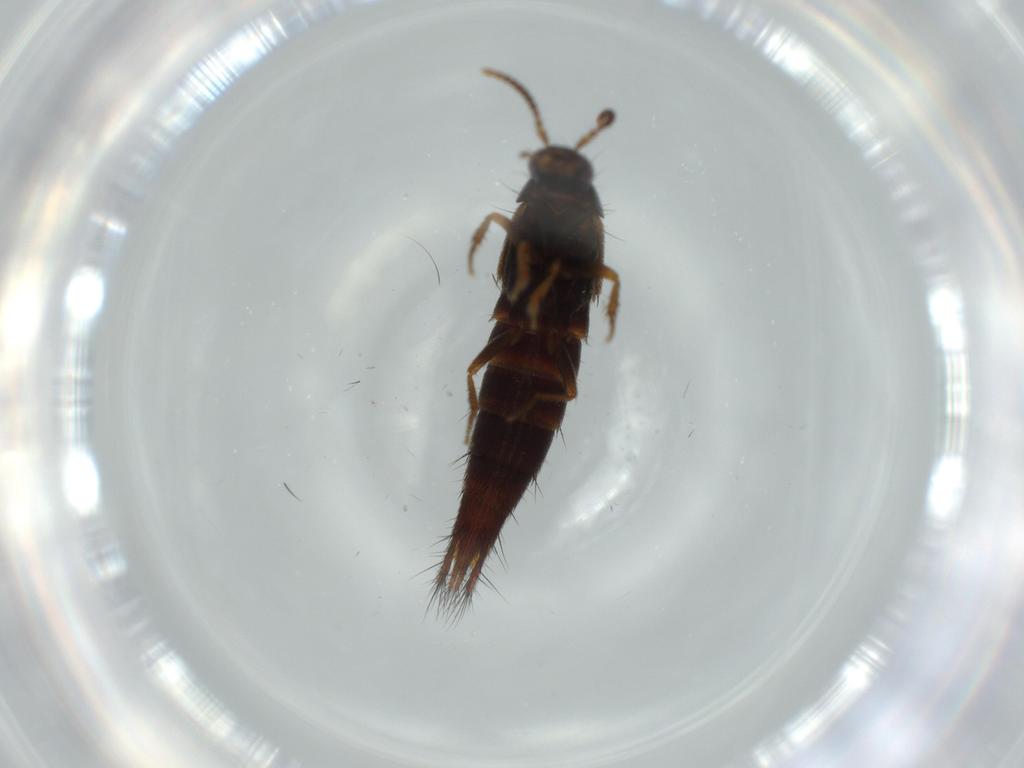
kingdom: Animalia
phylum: Arthropoda
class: Insecta
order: Coleoptera
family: Staphylinidae
